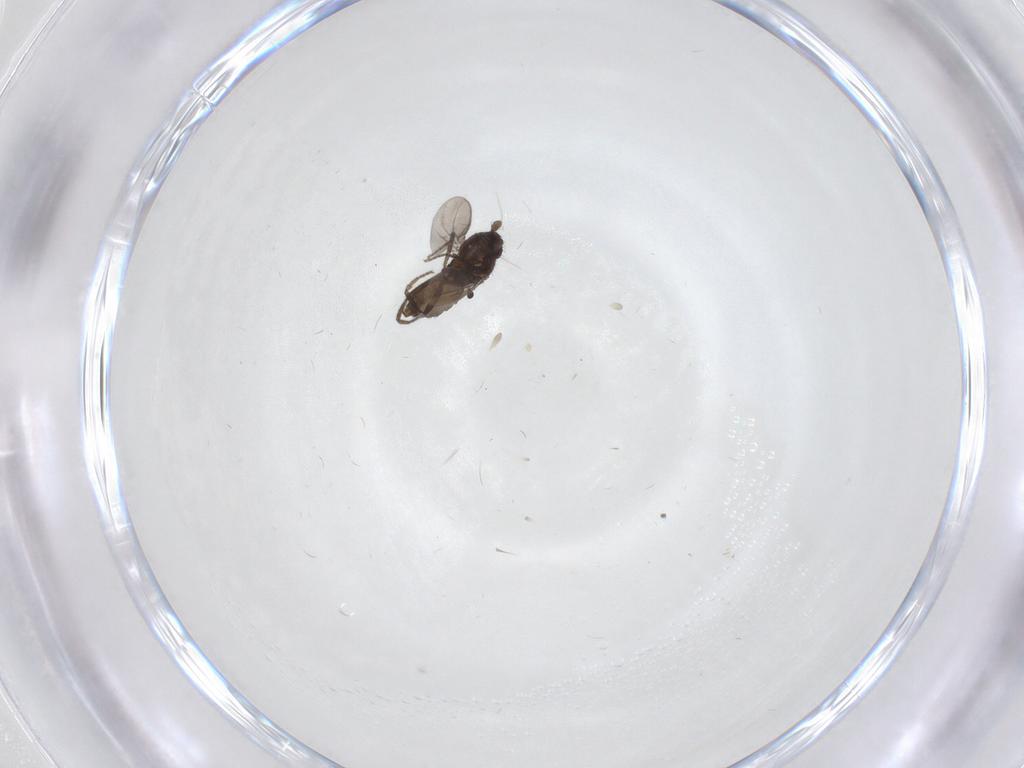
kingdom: Animalia
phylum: Arthropoda
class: Insecta
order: Diptera
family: Sphaeroceridae
